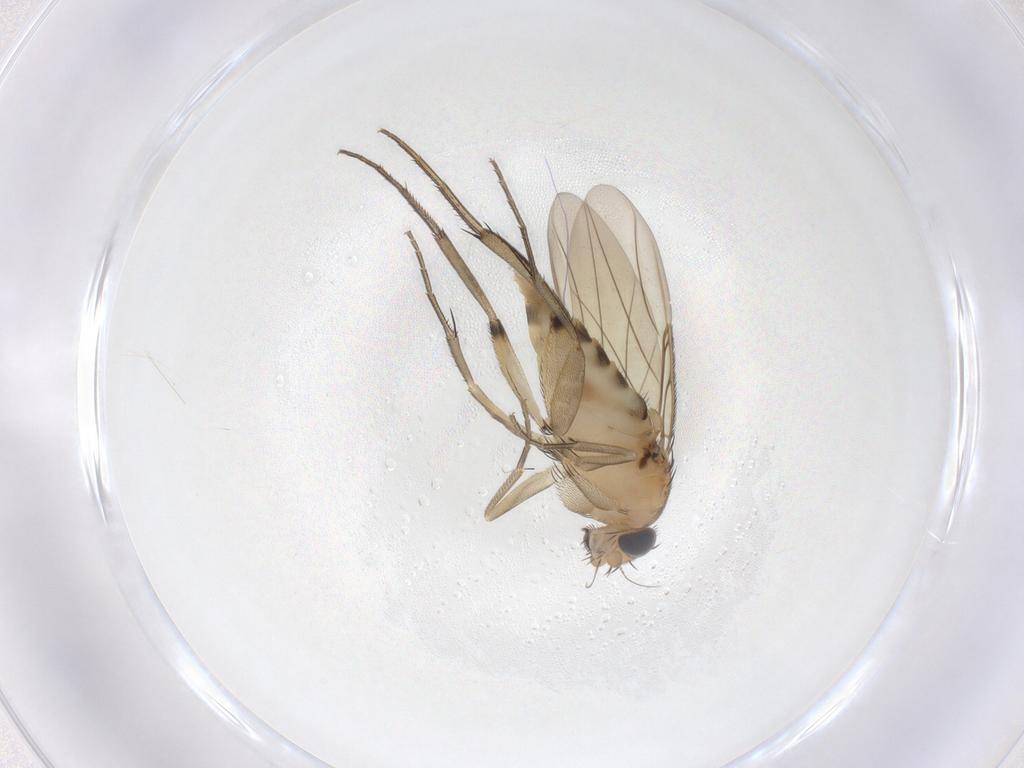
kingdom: Animalia
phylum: Arthropoda
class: Insecta
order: Diptera
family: Phoridae
